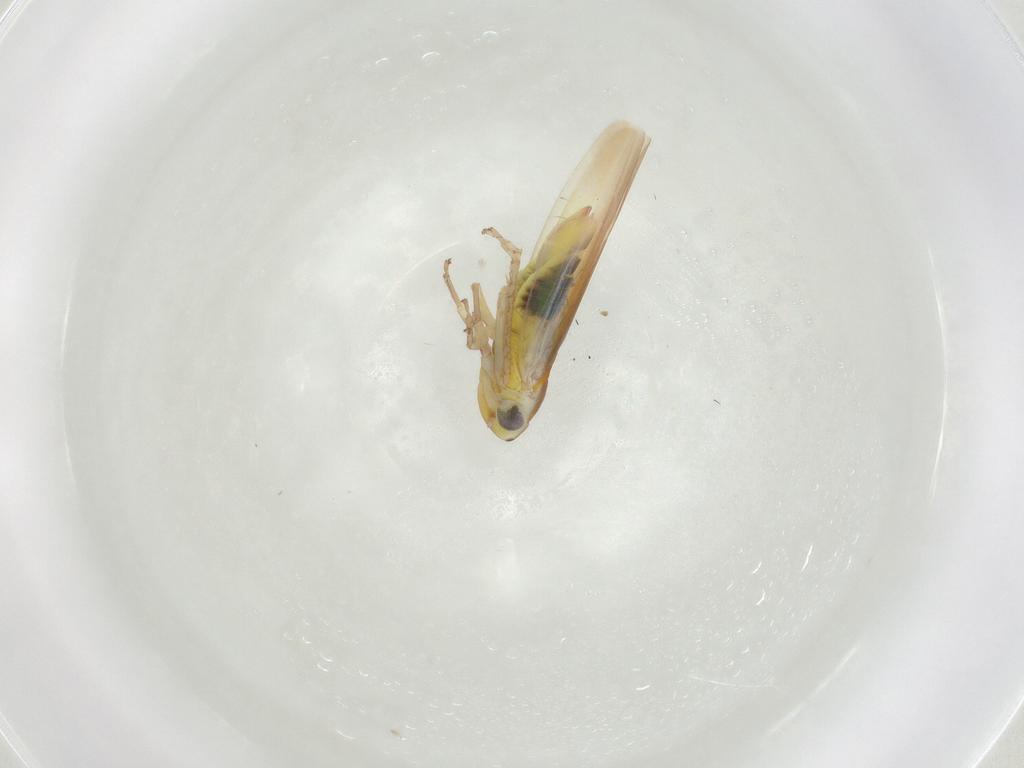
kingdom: Animalia
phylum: Arthropoda
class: Insecta
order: Hemiptera
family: Cicadellidae
